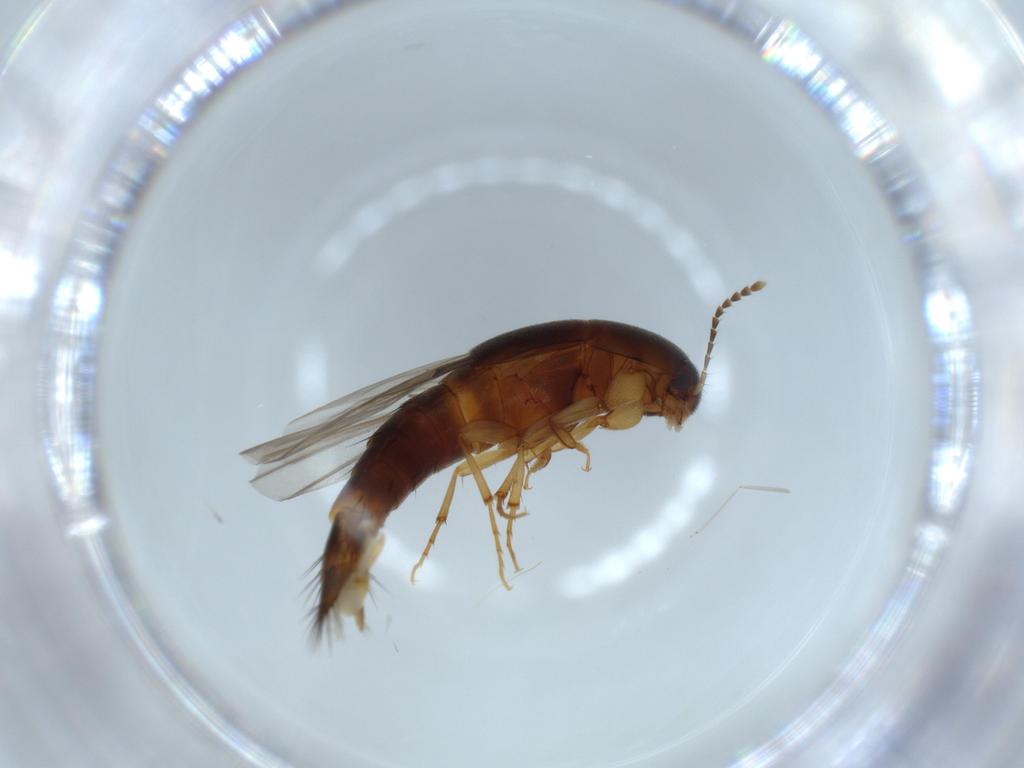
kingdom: Animalia
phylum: Arthropoda
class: Insecta
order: Coleoptera
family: Staphylinidae
